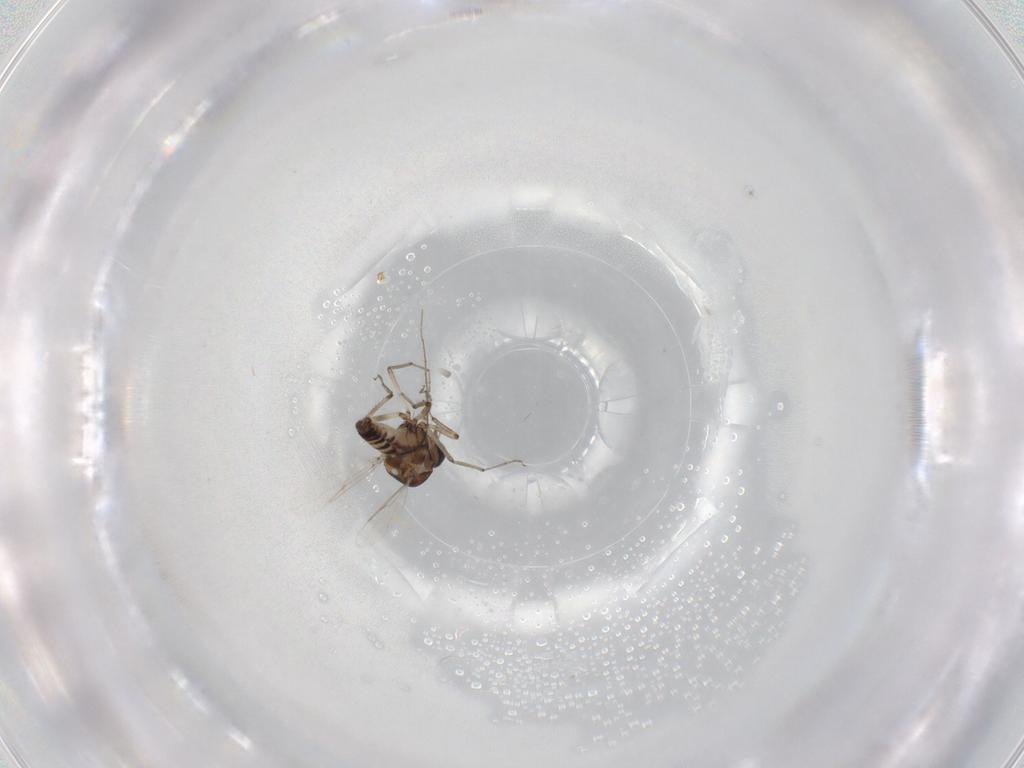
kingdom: Animalia
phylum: Arthropoda
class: Insecta
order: Diptera
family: Ceratopogonidae
